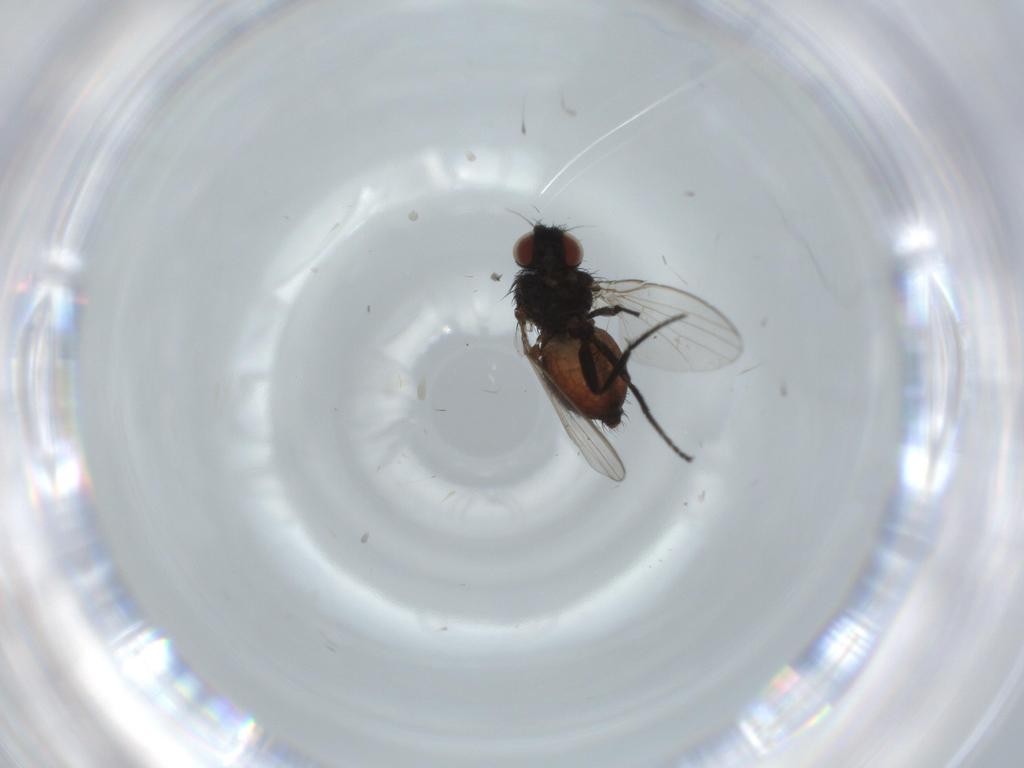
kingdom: Animalia
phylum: Arthropoda
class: Insecta
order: Diptera
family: Milichiidae
